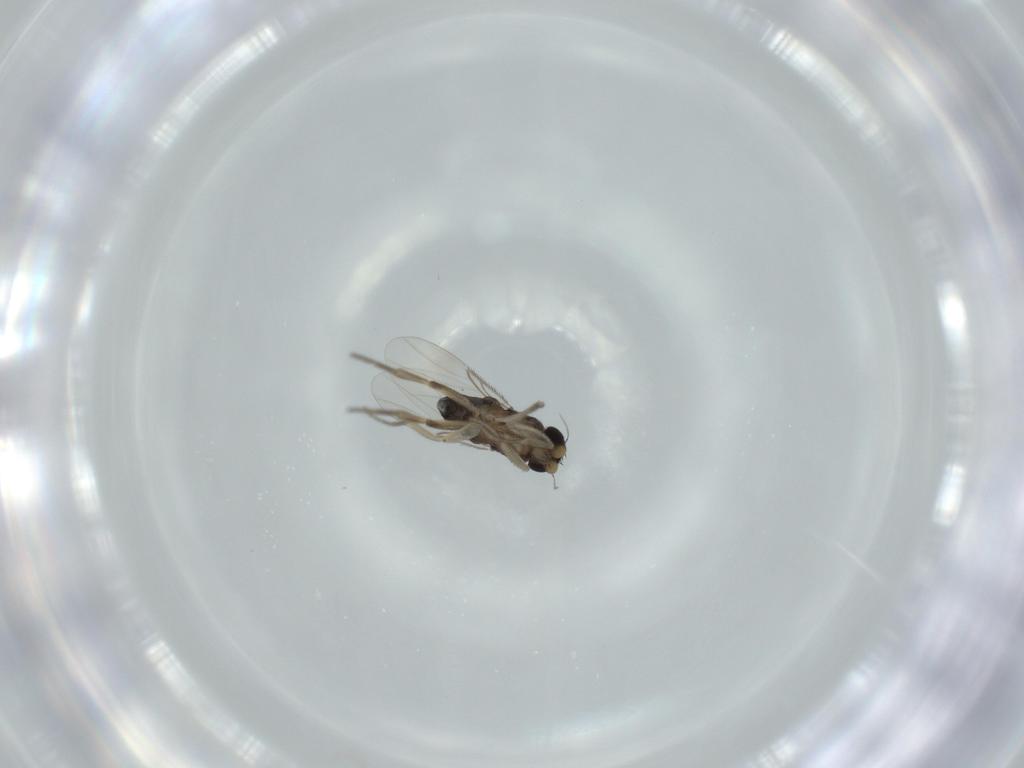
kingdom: Animalia
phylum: Arthropoda
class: Insecta
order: Diptera
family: Phoridae
